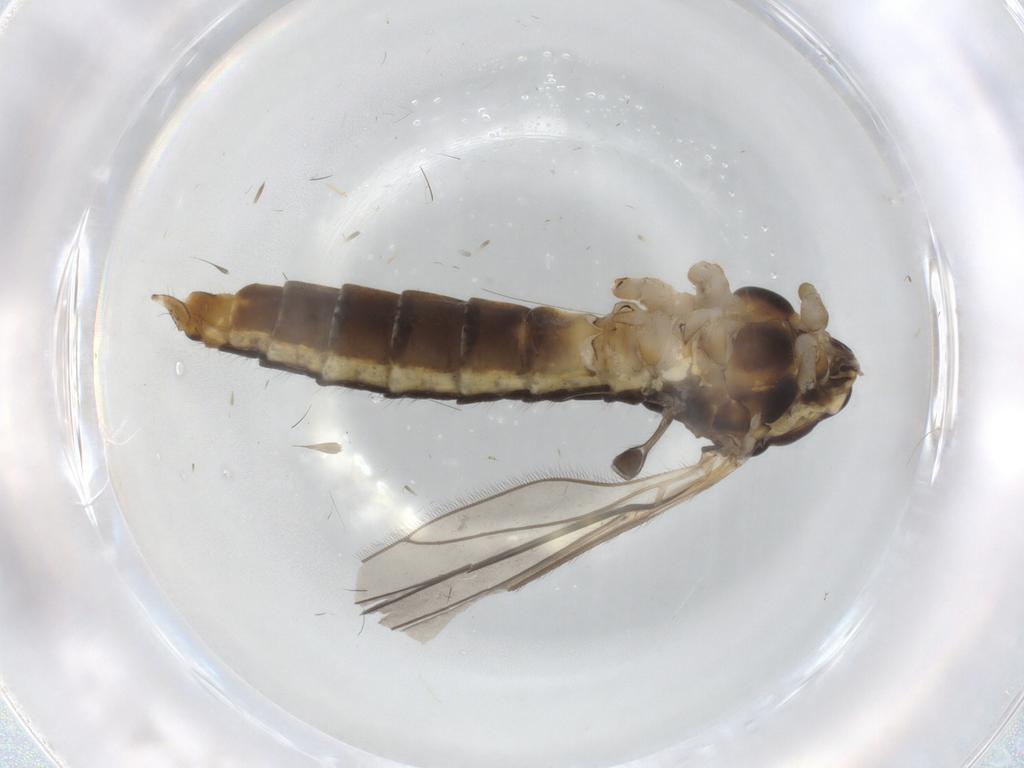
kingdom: Animalia
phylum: Arthropoda
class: Insecta
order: Diptera
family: Limoniidae
